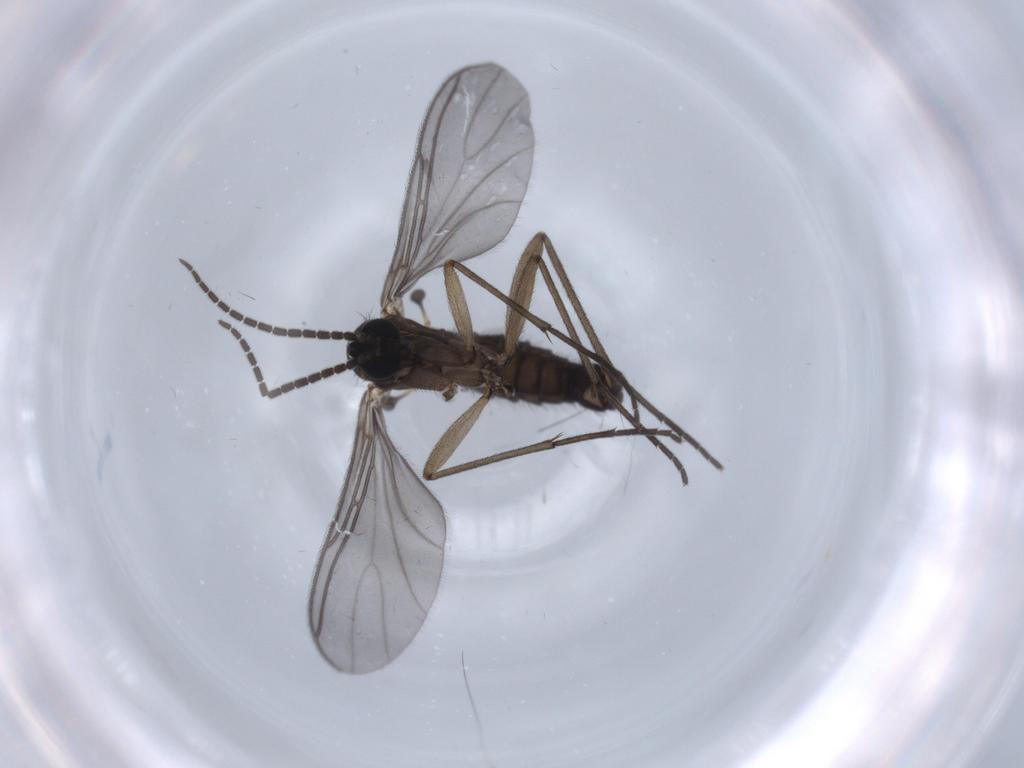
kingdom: Animalia
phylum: Arthropoda
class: Insecta
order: Diptera
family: Sciaridae
